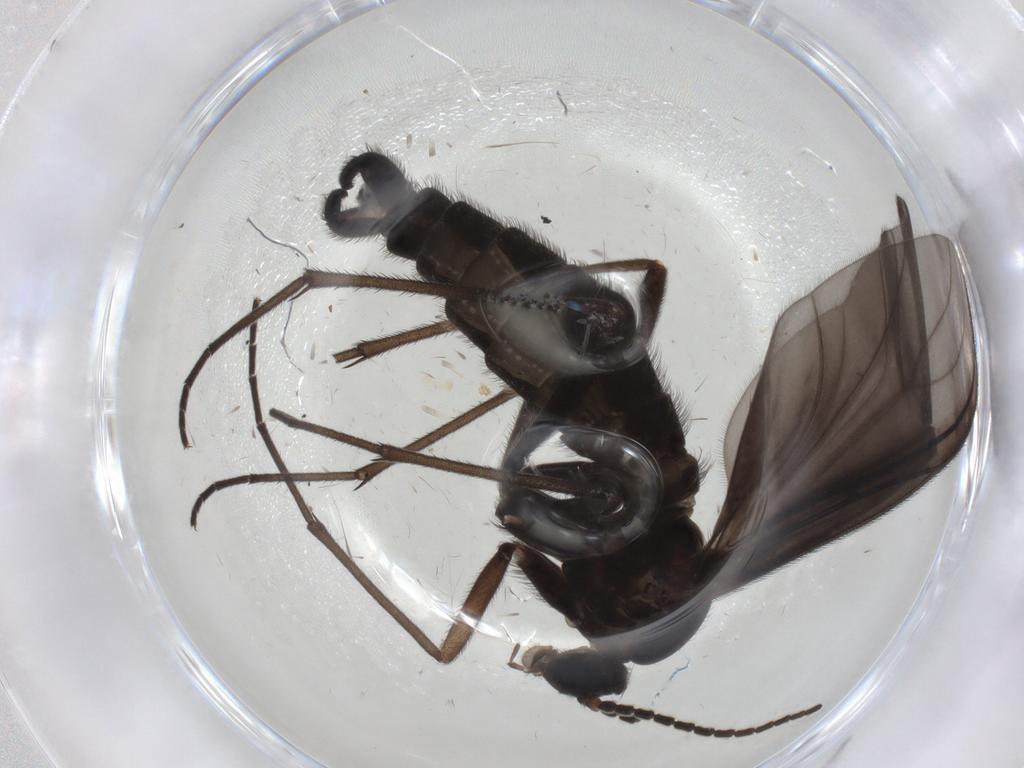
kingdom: Animalia
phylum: Arthropoda
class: Insecta
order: Diptera
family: Chironomidae
